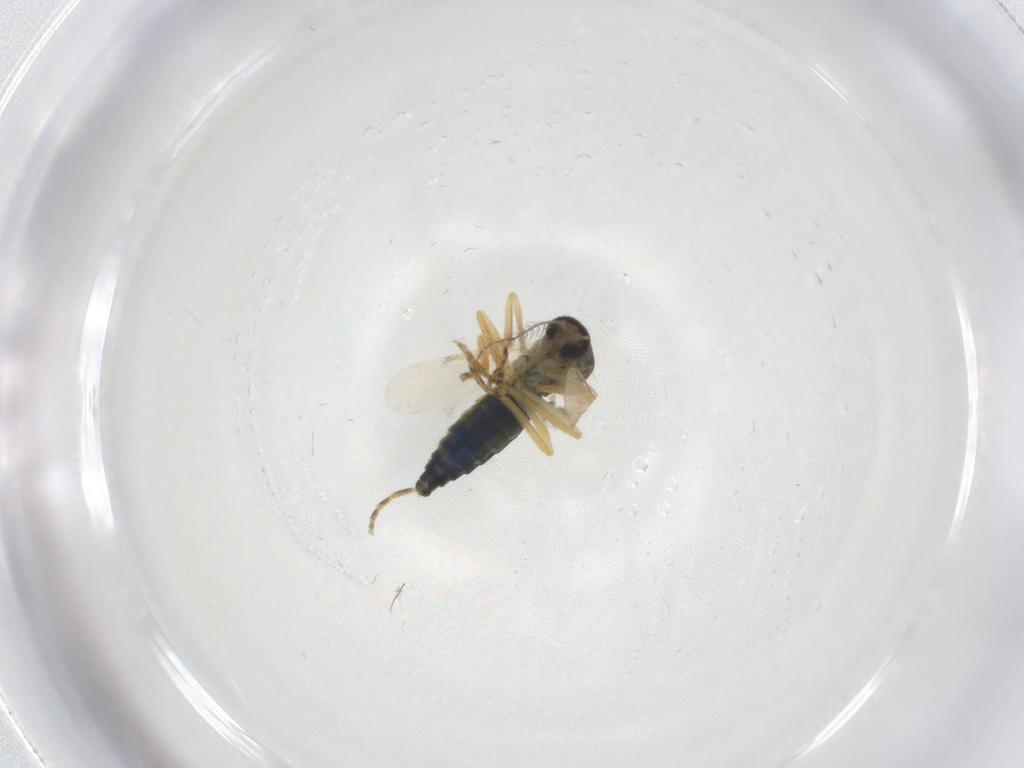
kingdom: Animalia
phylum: Arthropoda
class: Insecta
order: Diptera
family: Ceratopogonidae
